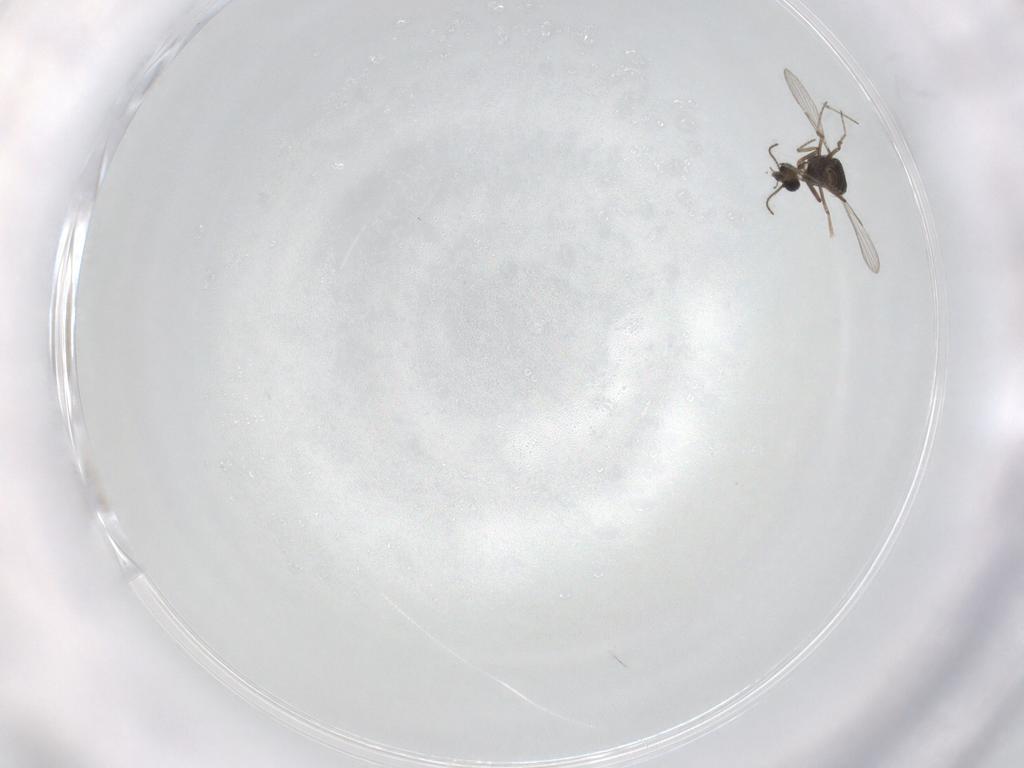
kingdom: Animalia
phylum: Arthropoda
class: Insecta
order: Diptera
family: Ceratopogonidae
